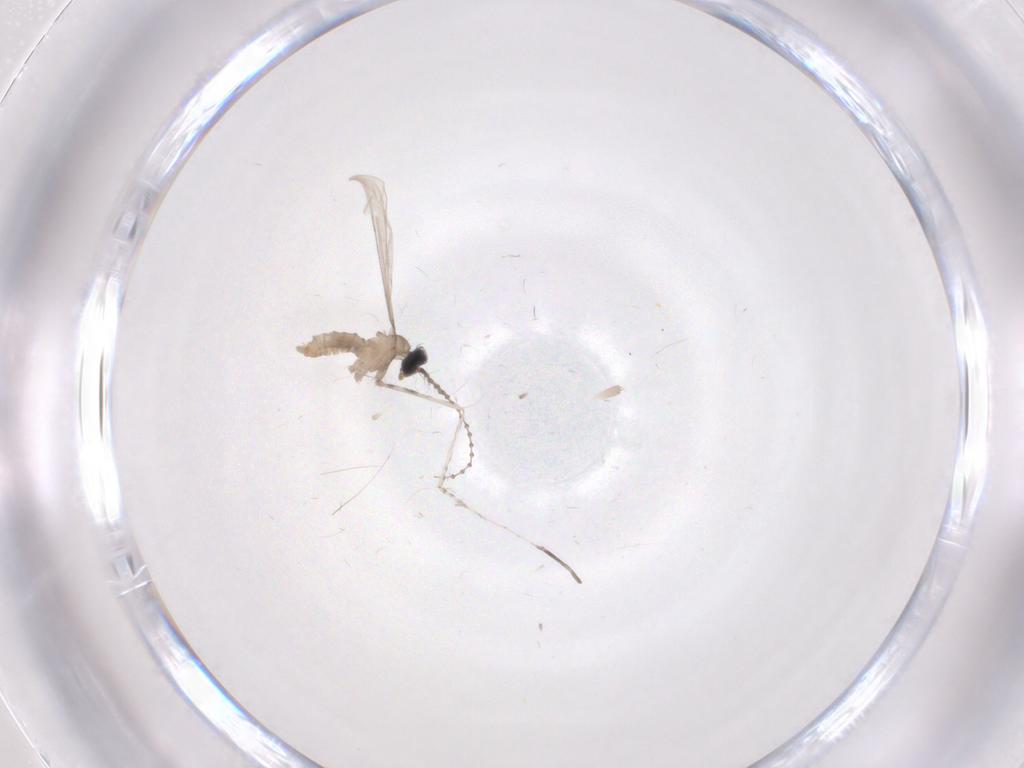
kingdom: Animalia
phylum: Arthropoda
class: Insecta
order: Diptera
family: Cecidomyiidae
